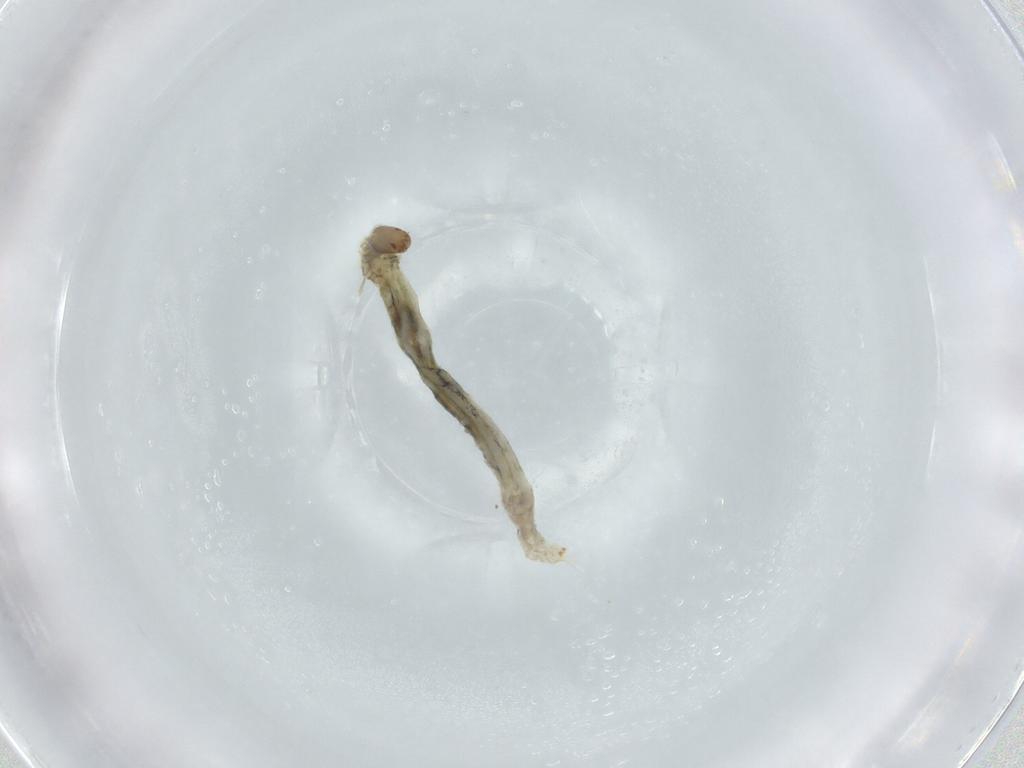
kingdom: Animalia
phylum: Arthropoda
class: Insecta
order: Diptera
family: Chironomidae
